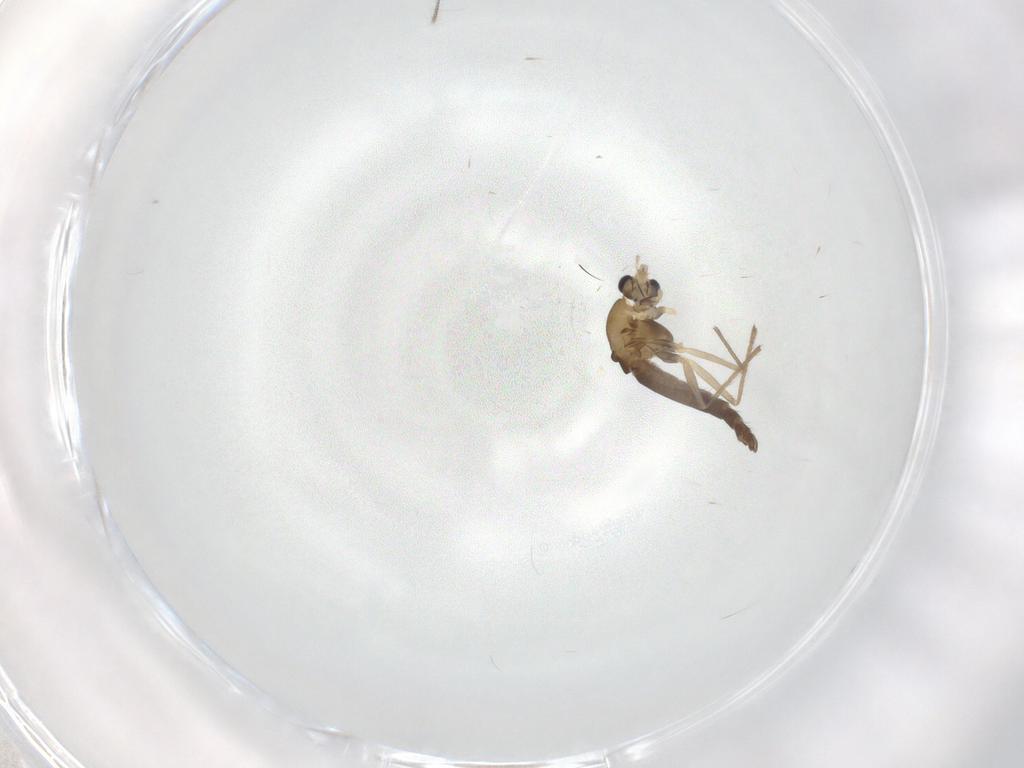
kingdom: Animalia
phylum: Arthropoda
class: Insecta
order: Diptera
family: Chironomidae
